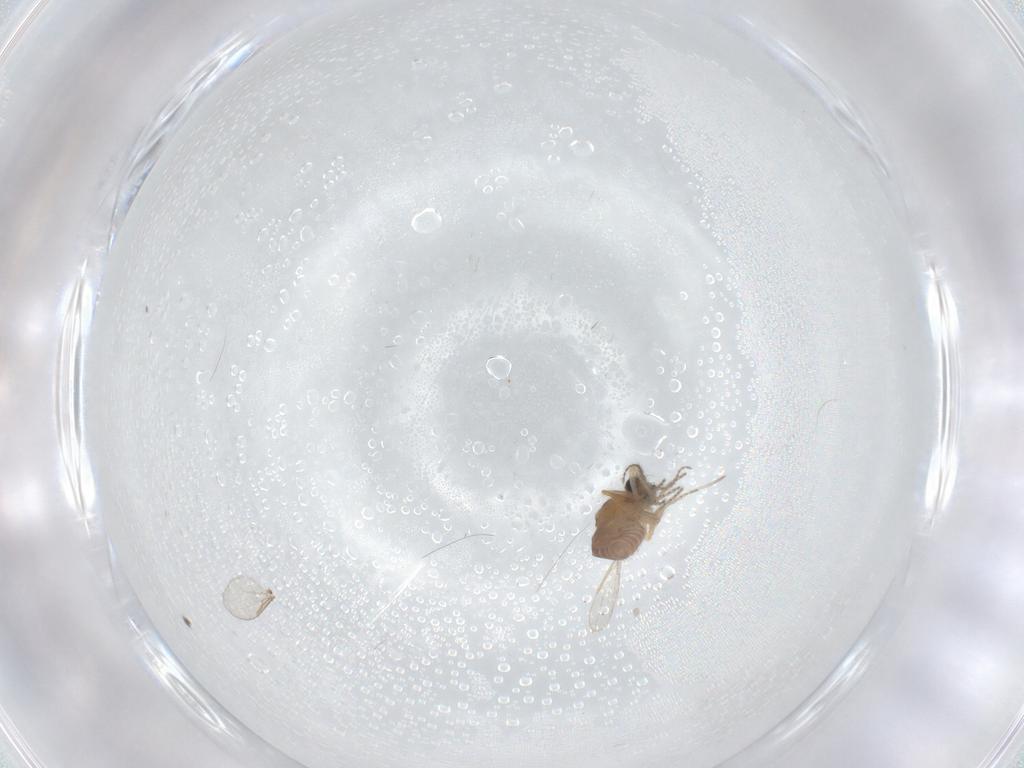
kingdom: Animalia
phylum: Arthropoda
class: Insecta
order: Diptera
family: Ceratopogonidae
